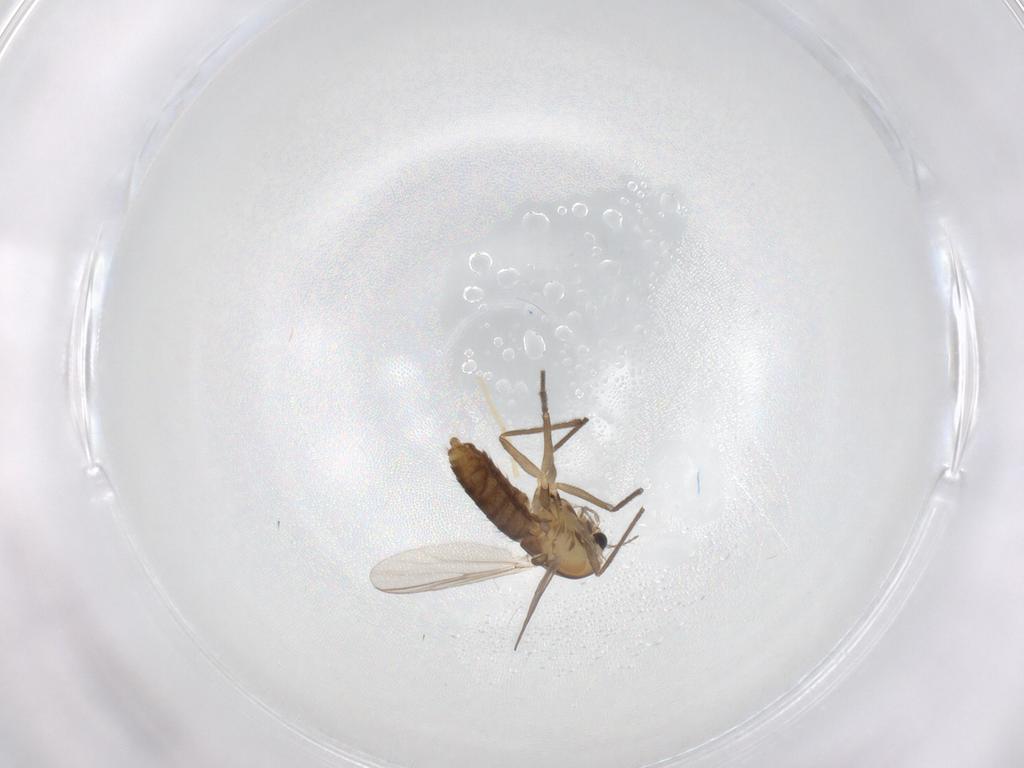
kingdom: Animalia
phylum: Arthropoda
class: Insecta
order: Diptera
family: Chironomidae
